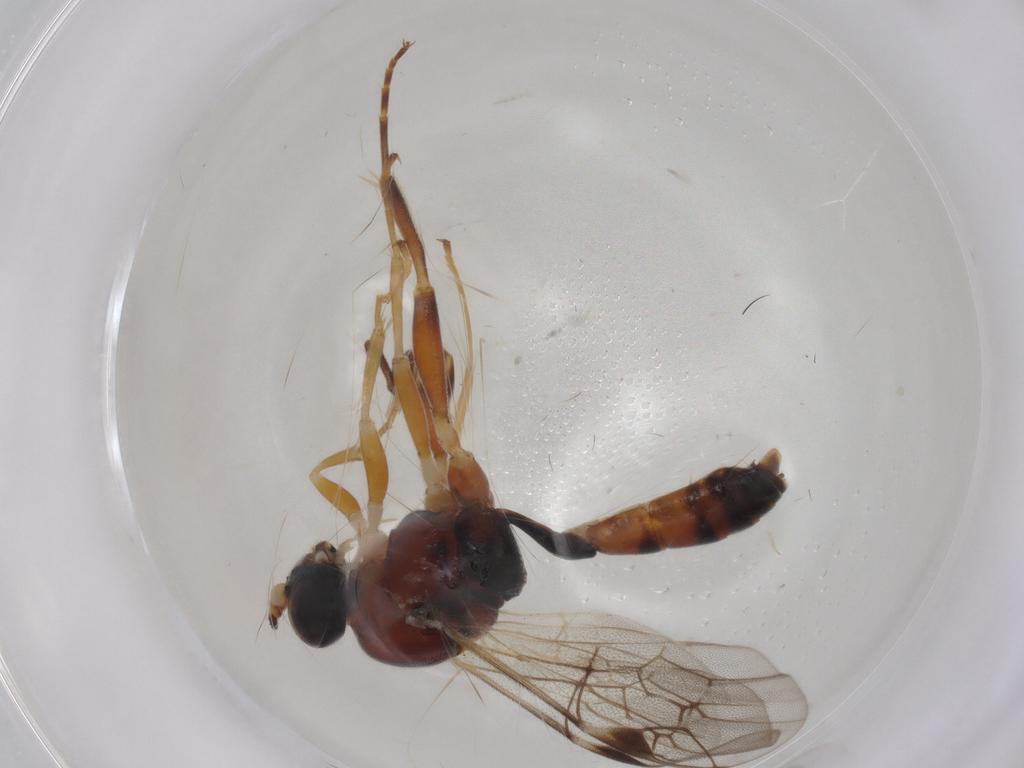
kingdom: Animalia
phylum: Arthropoda
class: Insecta
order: Hymenoptera
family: Ichneumonidae
